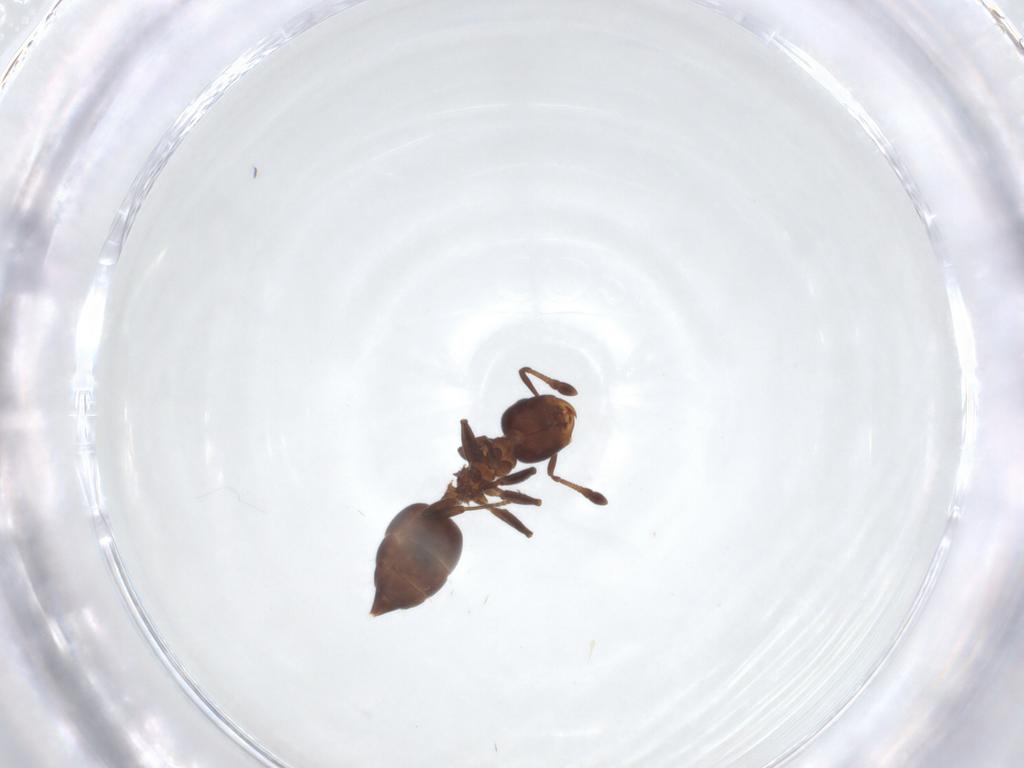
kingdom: Animalia
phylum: Arthropoda
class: Insecta
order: Hymenoptera
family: Formicidae
